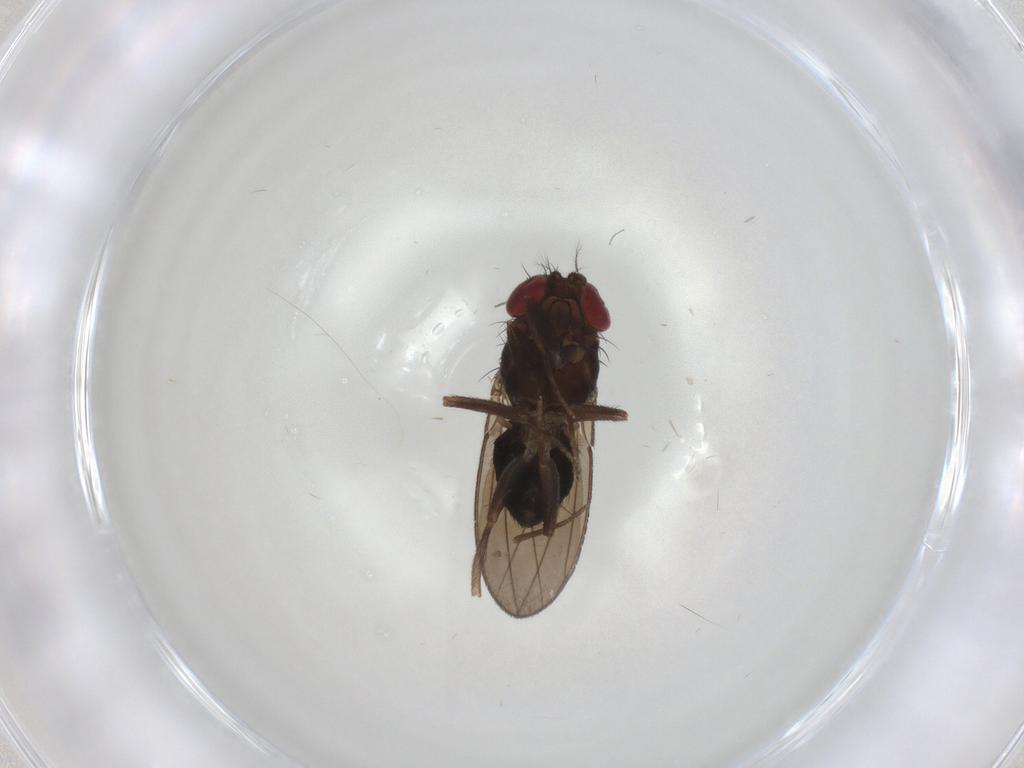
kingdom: Animalia
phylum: Arthropoda
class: Insecta
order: Diptera
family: Drosophilidae
